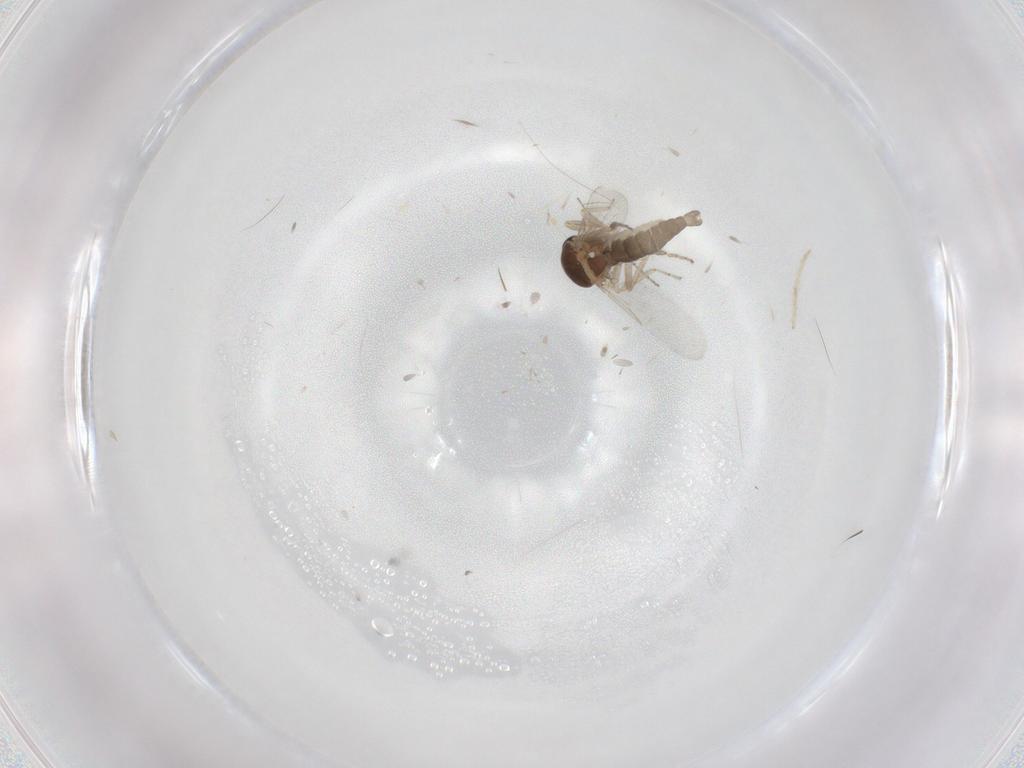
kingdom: Animalia
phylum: Arthropoda
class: Insecta
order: Diptera
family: Ceratopogonidae
